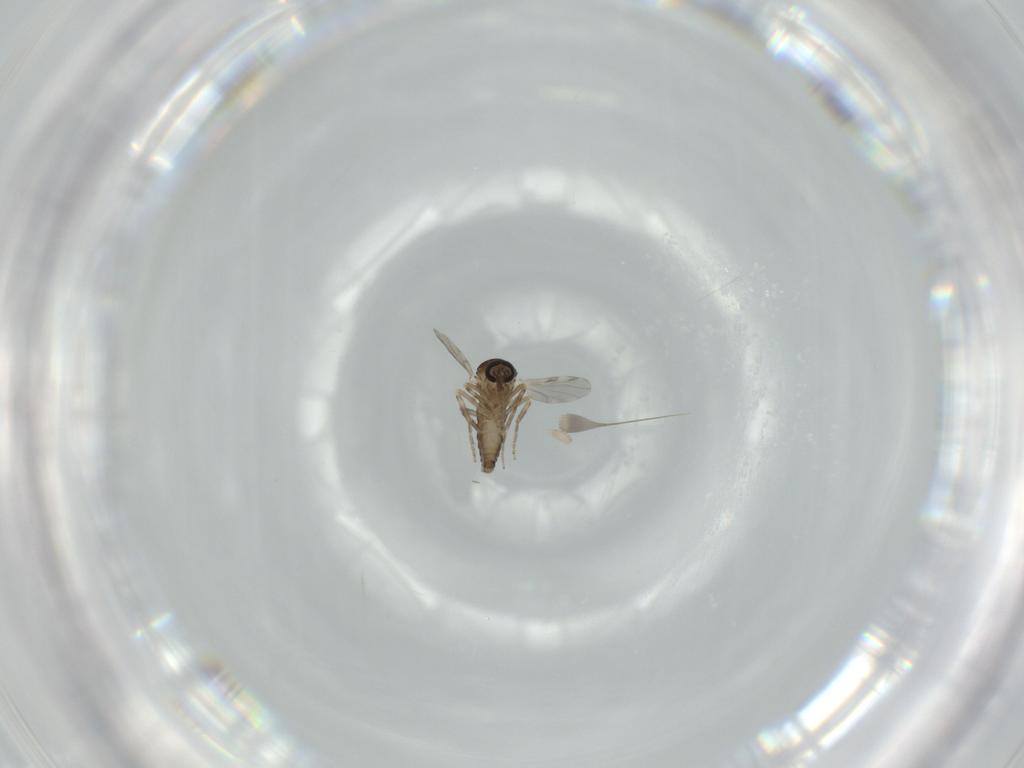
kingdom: Animalia
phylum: Arthropoda
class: Insecta
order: Diptera
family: Ceratopogonidae
